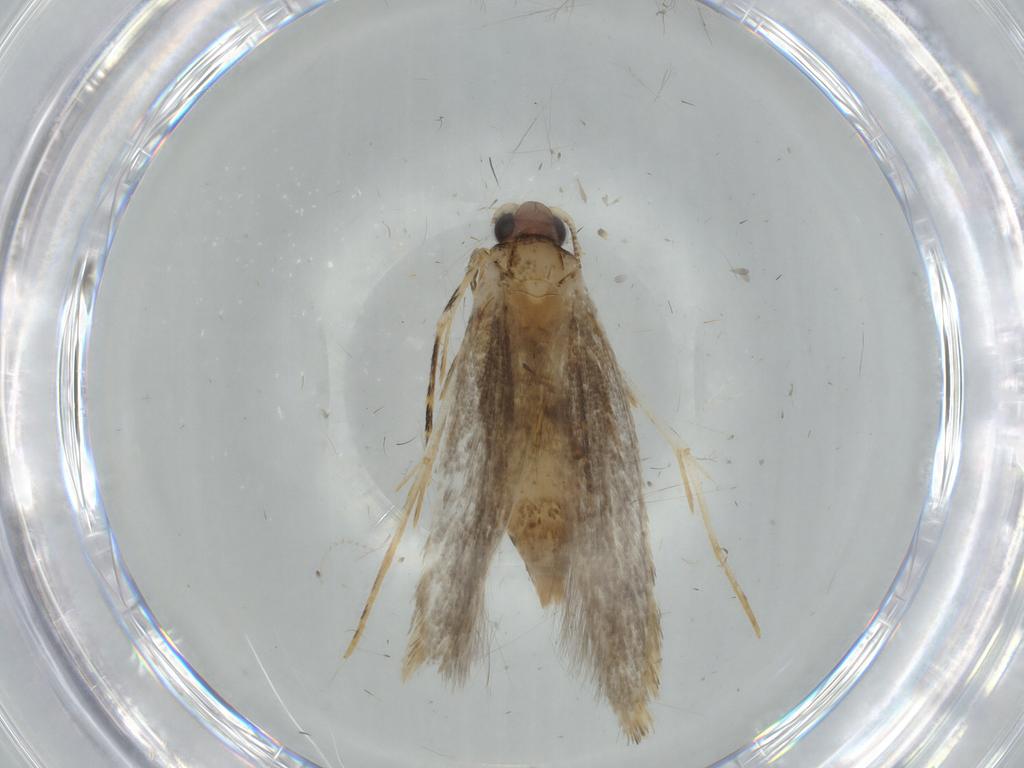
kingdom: Animalia
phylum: Arthropoda
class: Insecta
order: Lepidoptera
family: Tineidae
